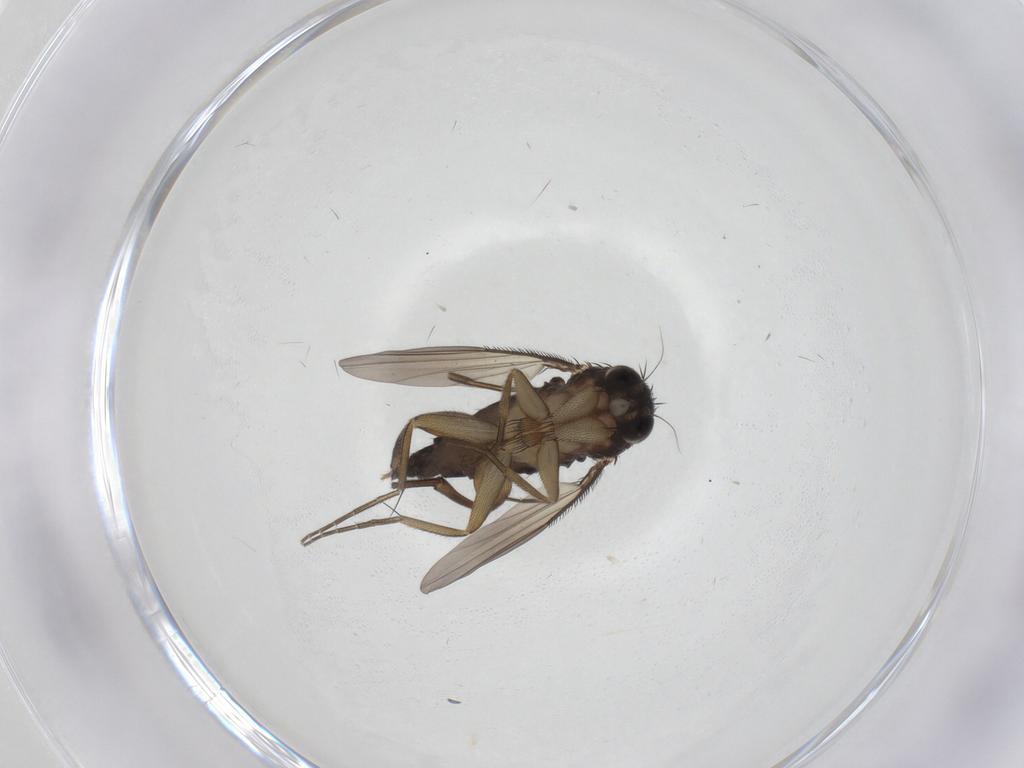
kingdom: Animalia
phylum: Arthropoda
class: Insecta
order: Diptera
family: Phoridae
